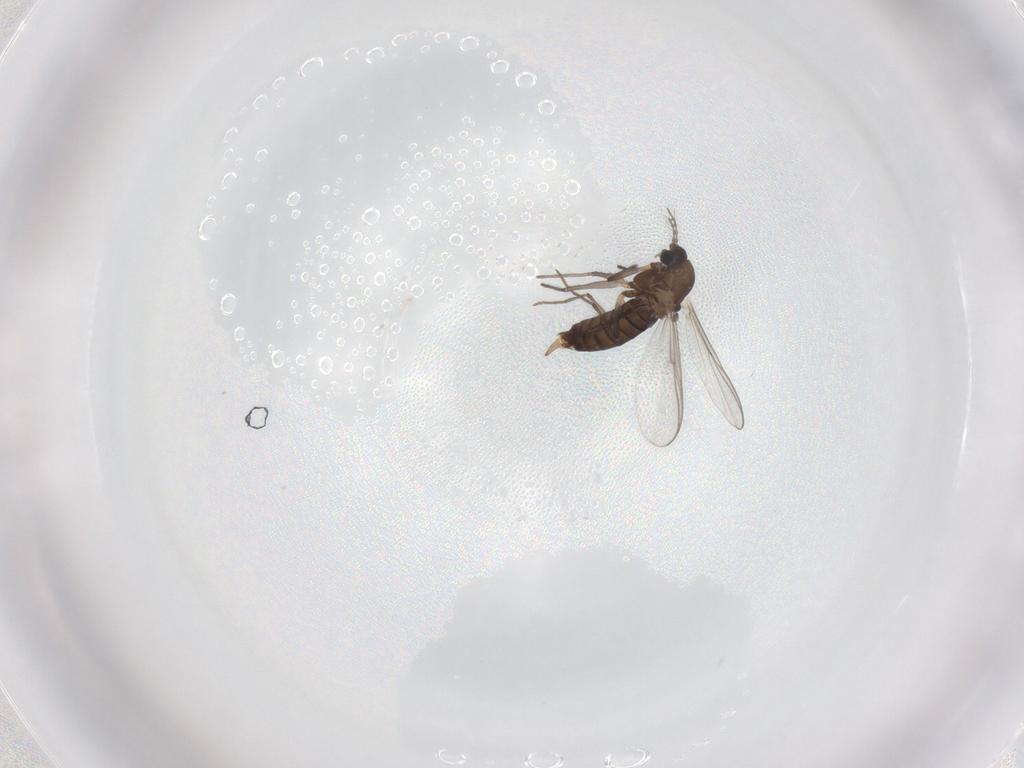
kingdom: Animalia
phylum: Arthropoda
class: Insecta
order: Diptera
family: Chironomidae
